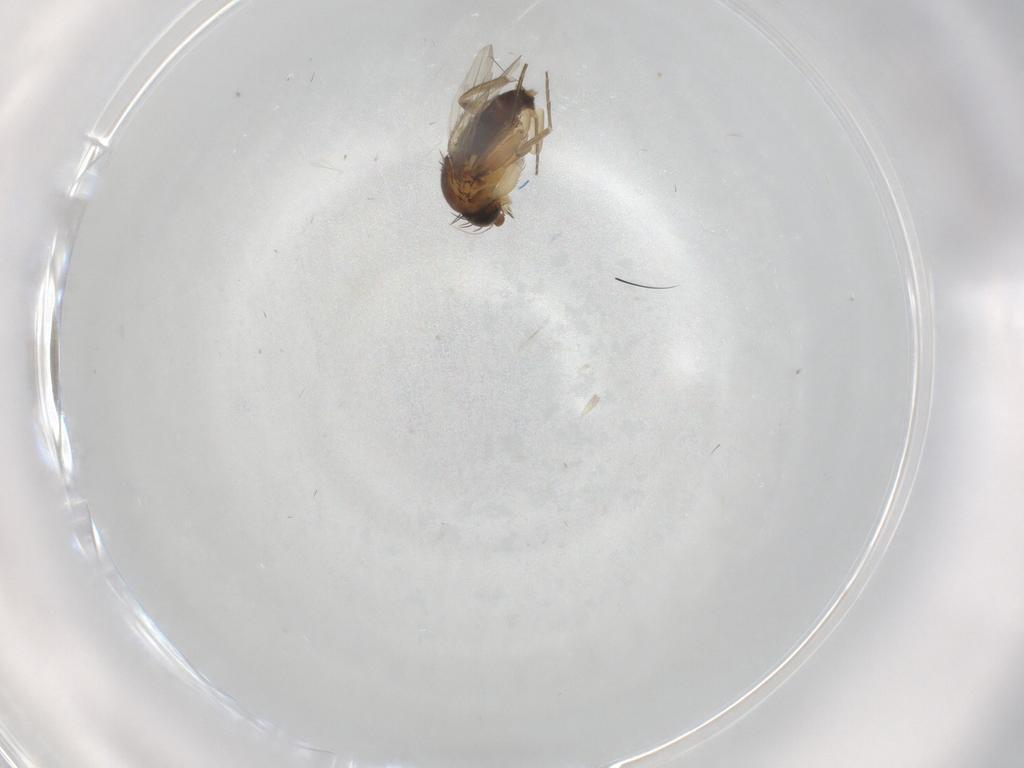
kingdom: Animalia
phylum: Arthropoda
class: Insecta
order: Diptera
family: Phoridae
